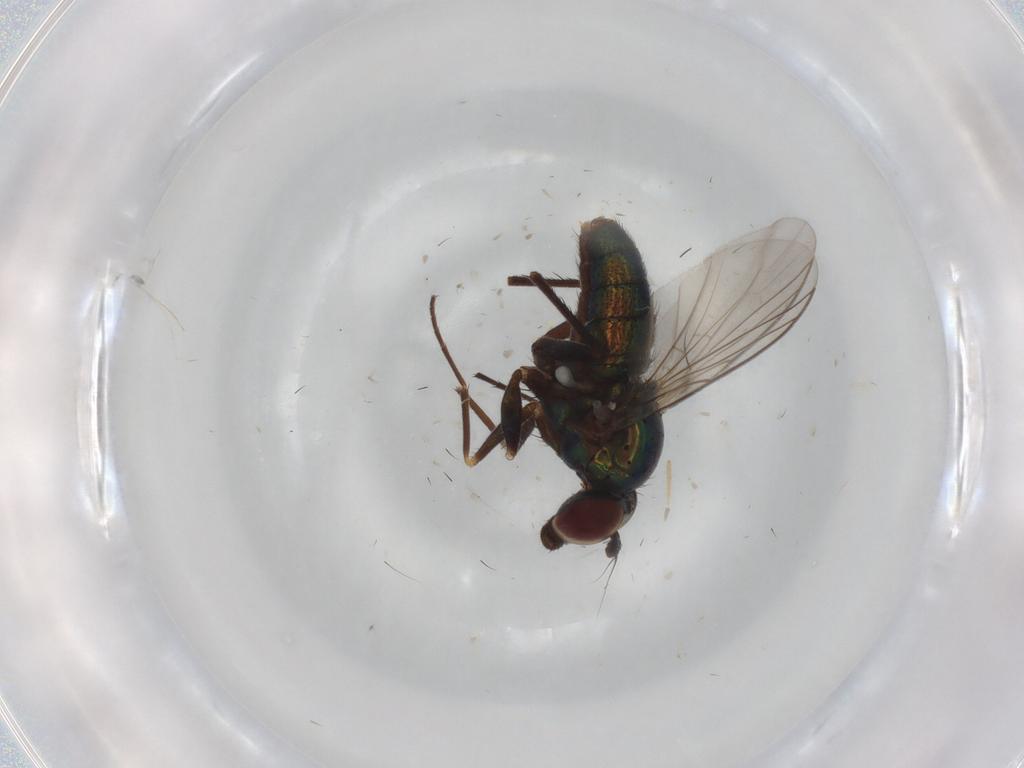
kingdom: Animalia
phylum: Arthropoda
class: Insecta
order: Diptera
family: Dolichopodidae
